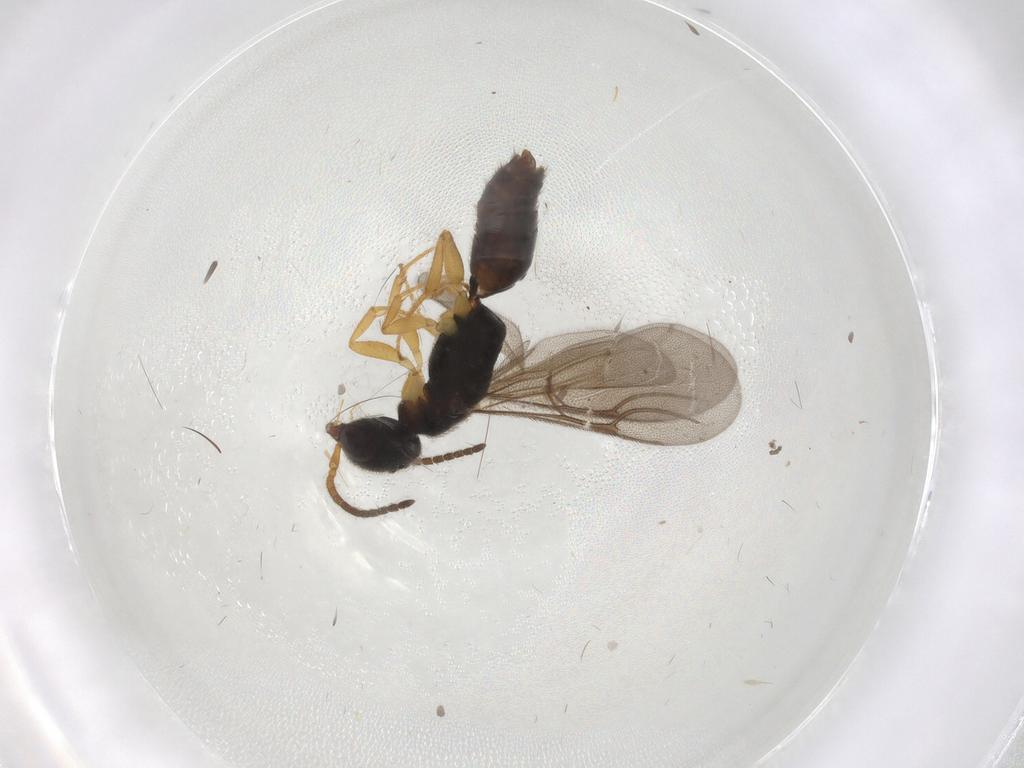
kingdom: Animalia
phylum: Arthropoda
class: Insecta
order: Hymenoptera
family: Bethylidae
